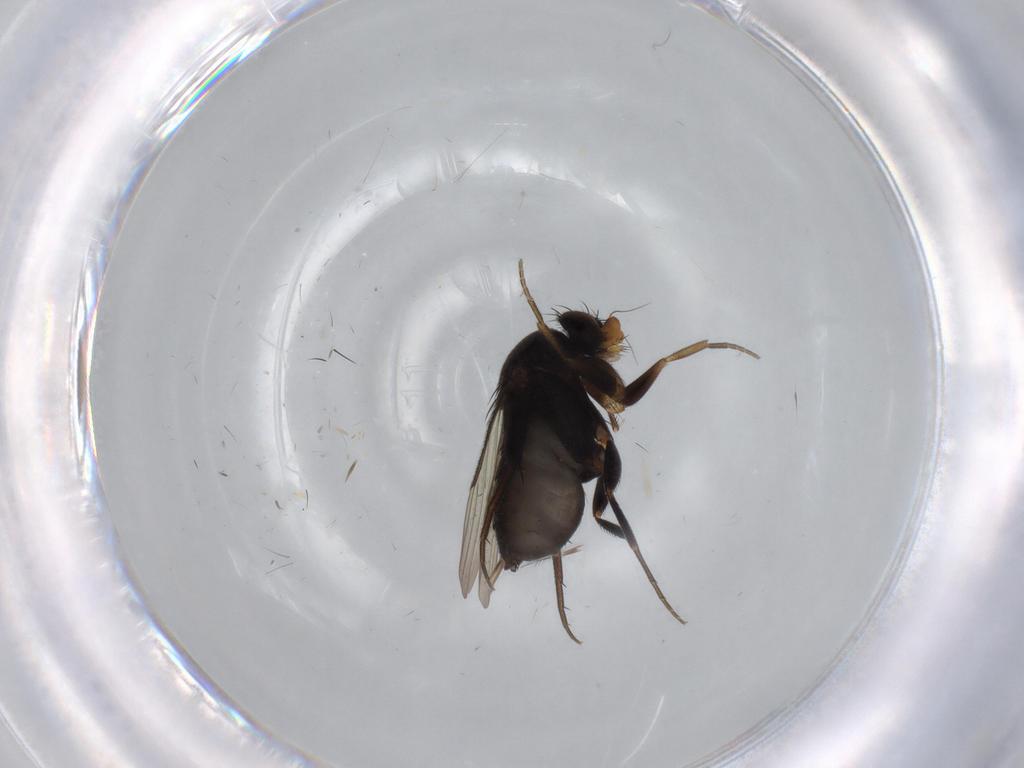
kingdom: Animalia
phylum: Arthropoda
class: Insecta
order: Diptera
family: Phoridae
